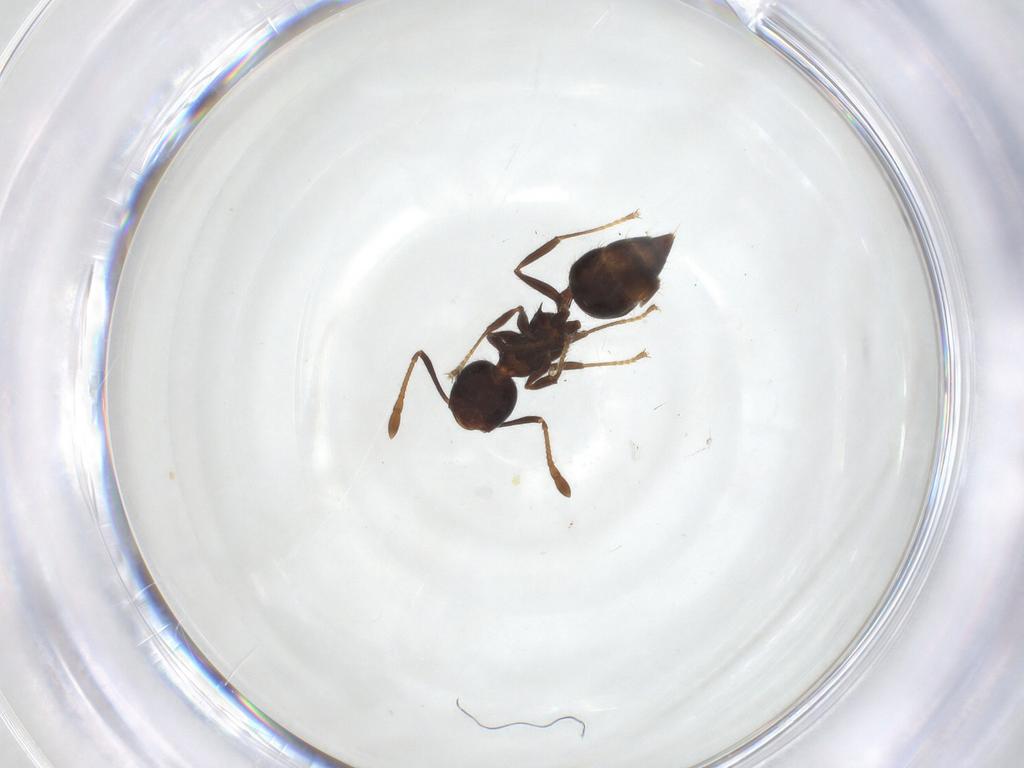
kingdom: Animalia
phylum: Arthropoda
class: Insecta
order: Hymenoptera
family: Formicidae
